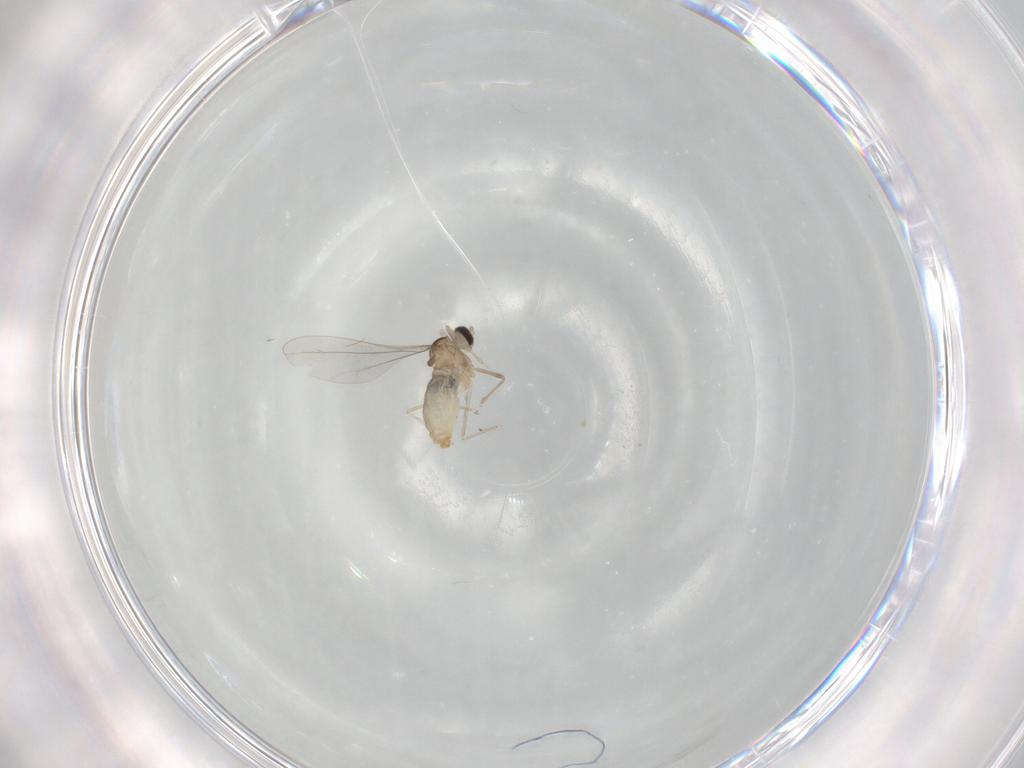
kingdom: Animalia
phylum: Arthropoda
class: Insecta
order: Diptera
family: Cecidomyiidae
